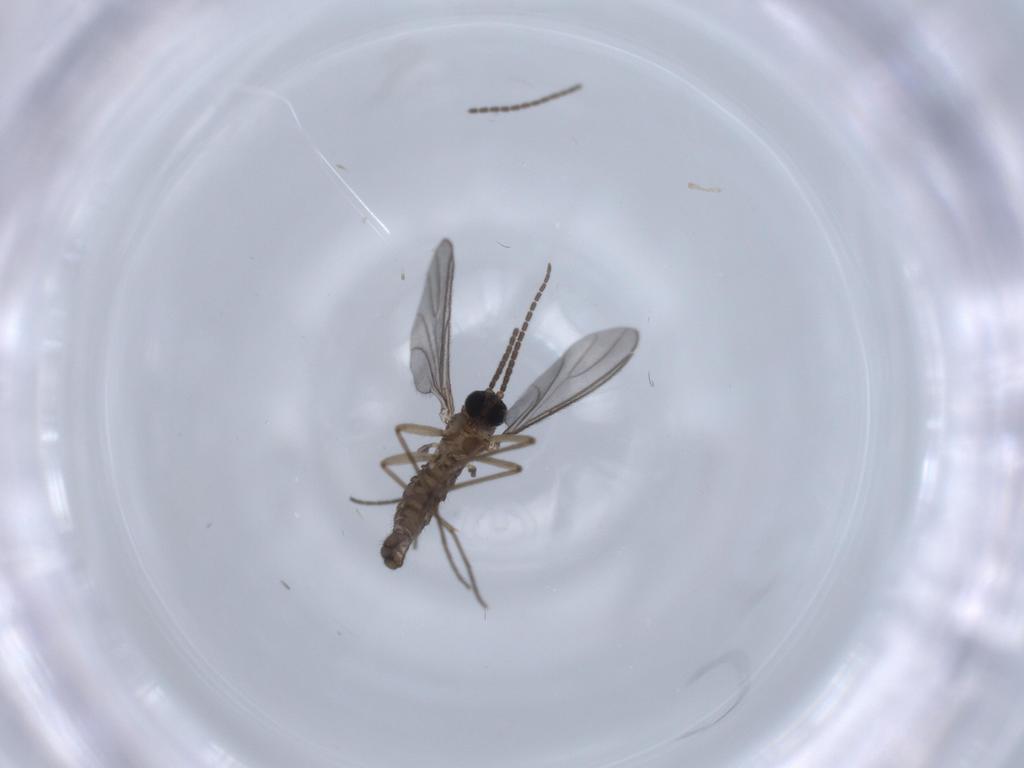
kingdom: Animalia
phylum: Arthropoda
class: Insecta
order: Diptera
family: Sciaridae
